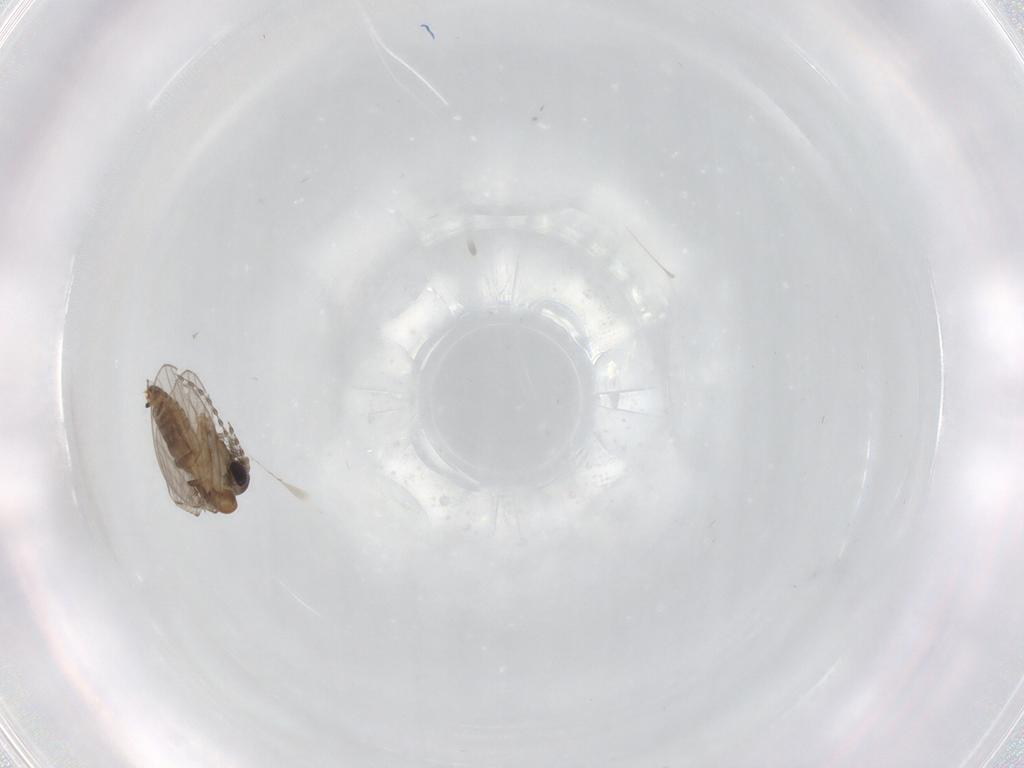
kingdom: Animalia
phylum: Arthropoda
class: Insecta
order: Diptera
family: Psychodidae
